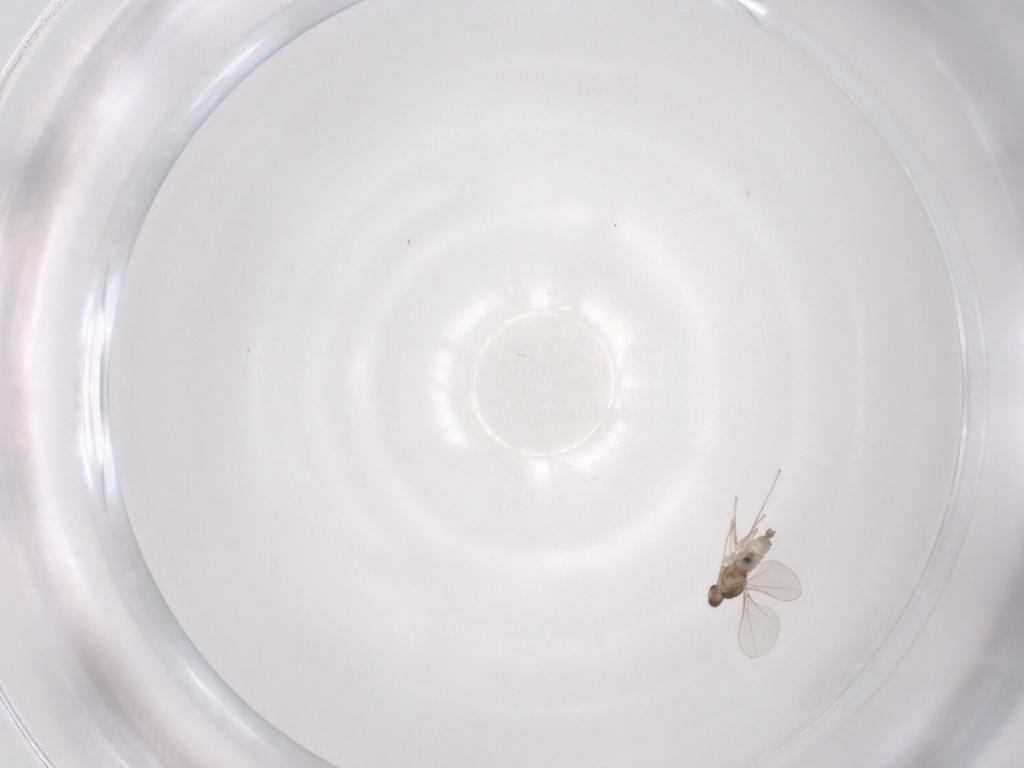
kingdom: Animalia
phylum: Arthropoda
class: Insecta
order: Diptera
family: Cecidomyiidae
